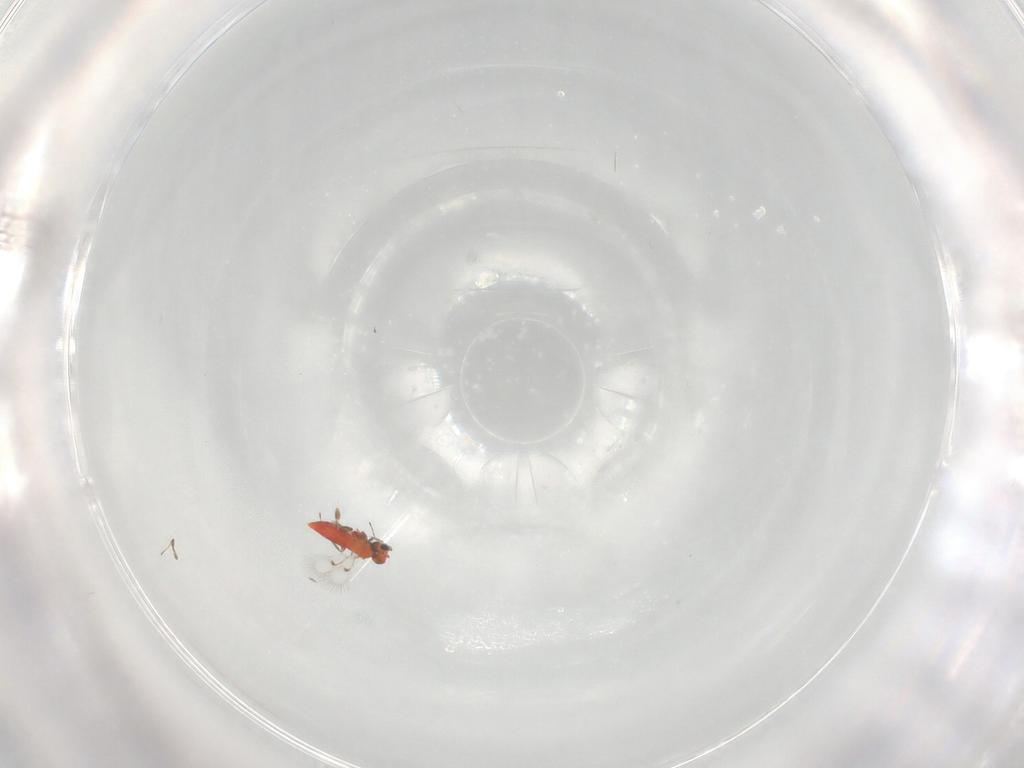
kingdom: Animalia
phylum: Arthropoda
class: Insecta
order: Hymenoptera
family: Trichogrammatidae
